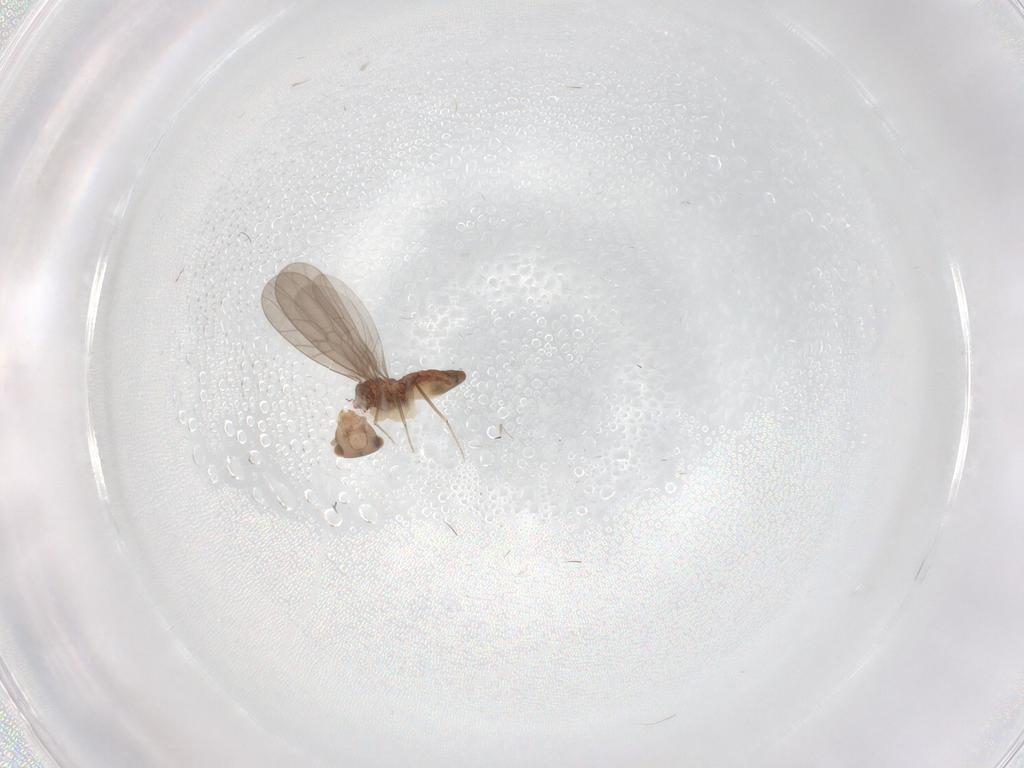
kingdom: Animalia
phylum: Arthropoda
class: Insecta
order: Psocodea
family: Lepidopsocidae
